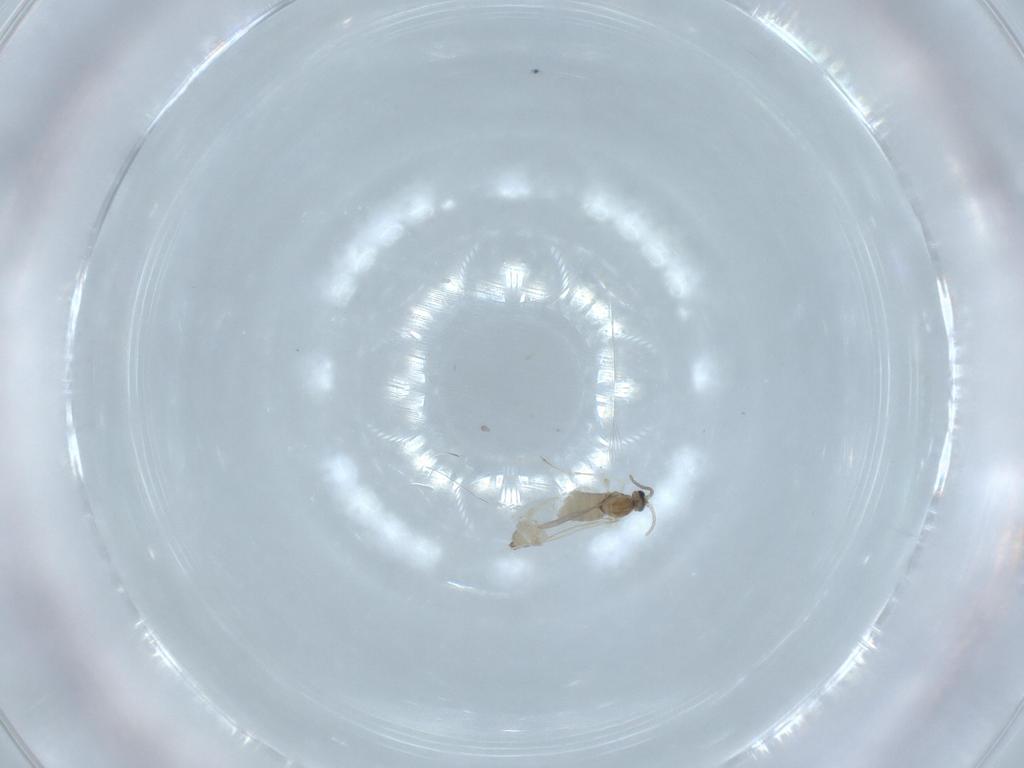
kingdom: Animalia
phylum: Arthropoda
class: Insecta
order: Diptera
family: Cecidomyiidae
